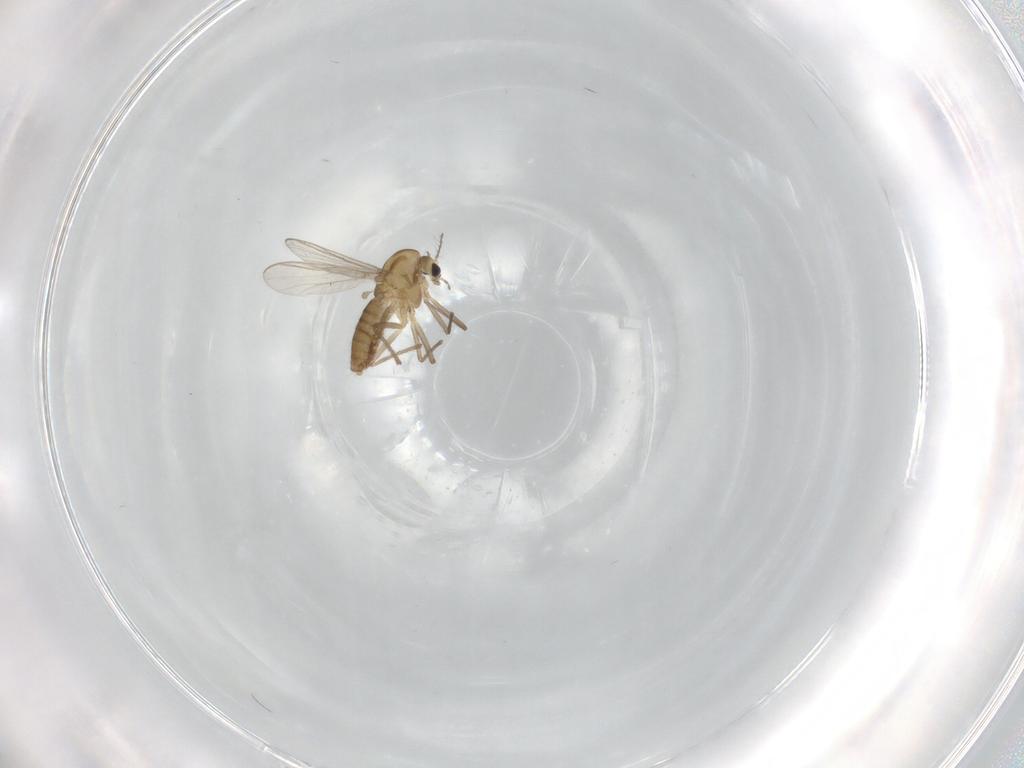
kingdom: Animalia
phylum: Arthropoda
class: Insecta
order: Diptera
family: Chironomidae
